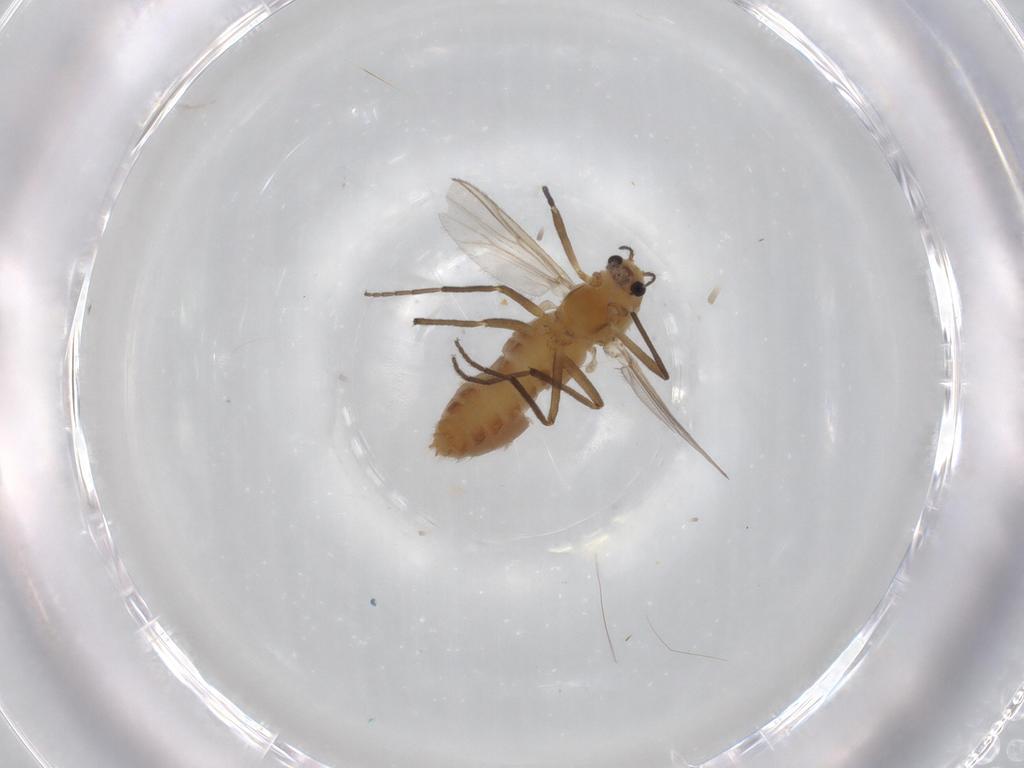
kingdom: Animalia
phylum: Arthropoda
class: Insecta
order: Diptera
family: Chironomidae
